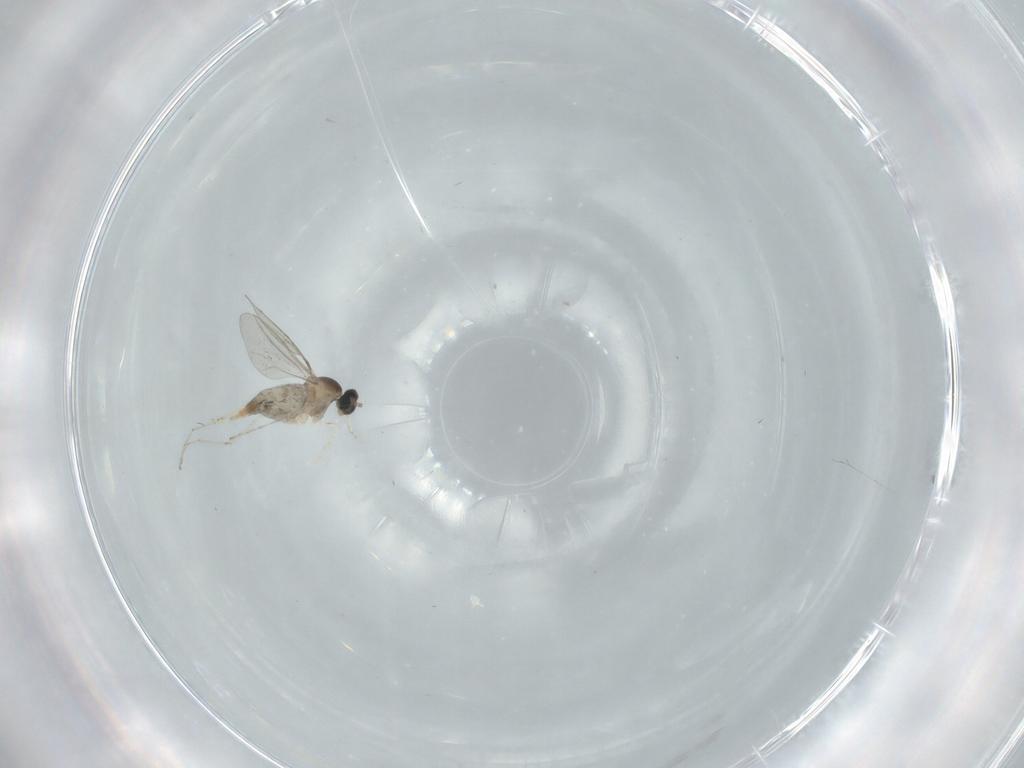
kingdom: Animalia
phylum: Arthropoda
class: Insecta
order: Diptera
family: Cecidomyiidae
